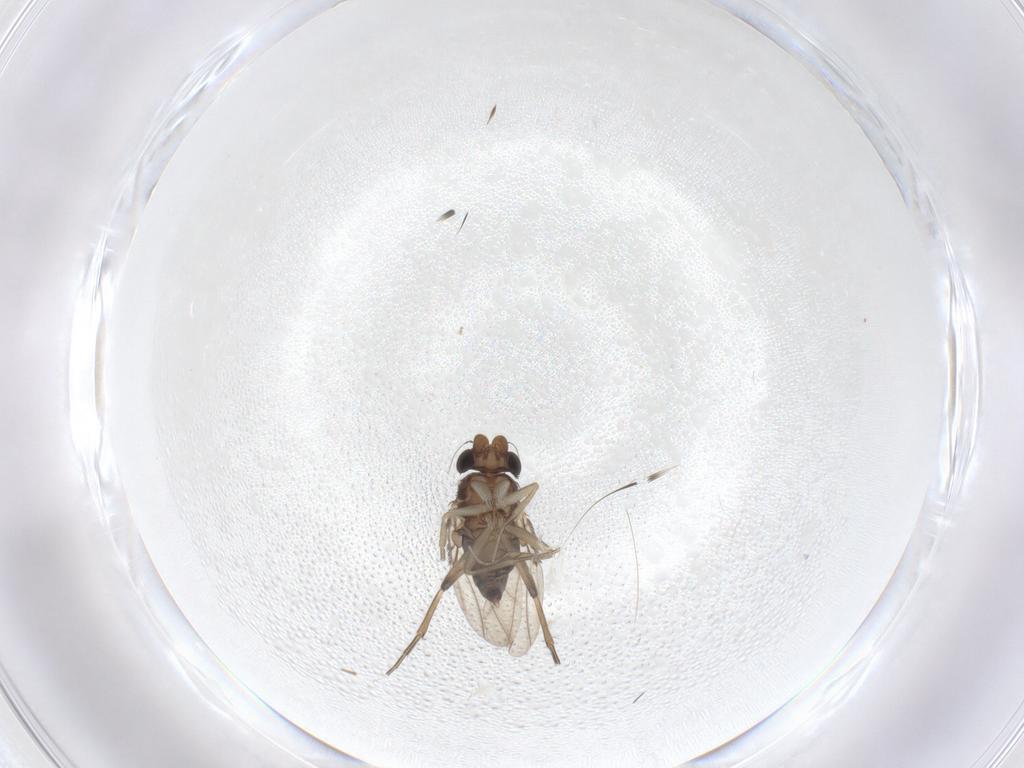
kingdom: Animalia
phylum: Arthropoda
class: Insecta
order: Diptera
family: Phoridae
